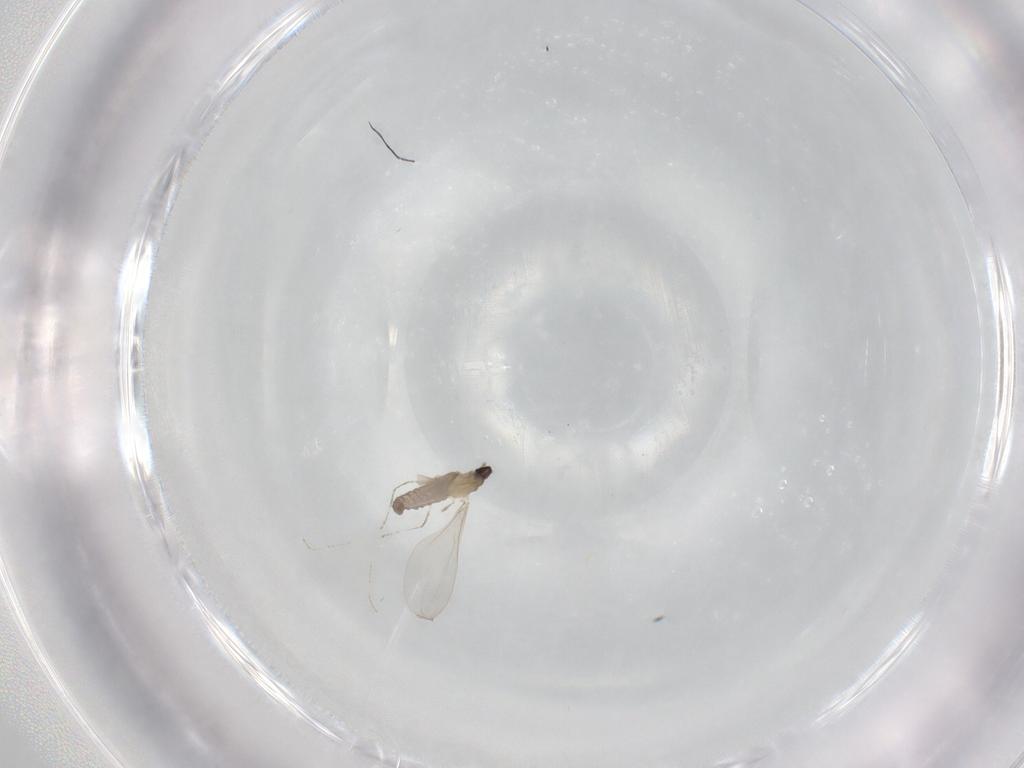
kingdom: Animalia
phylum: Arthropoda
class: Insecta
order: Diptera
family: Cecidomyiidae
